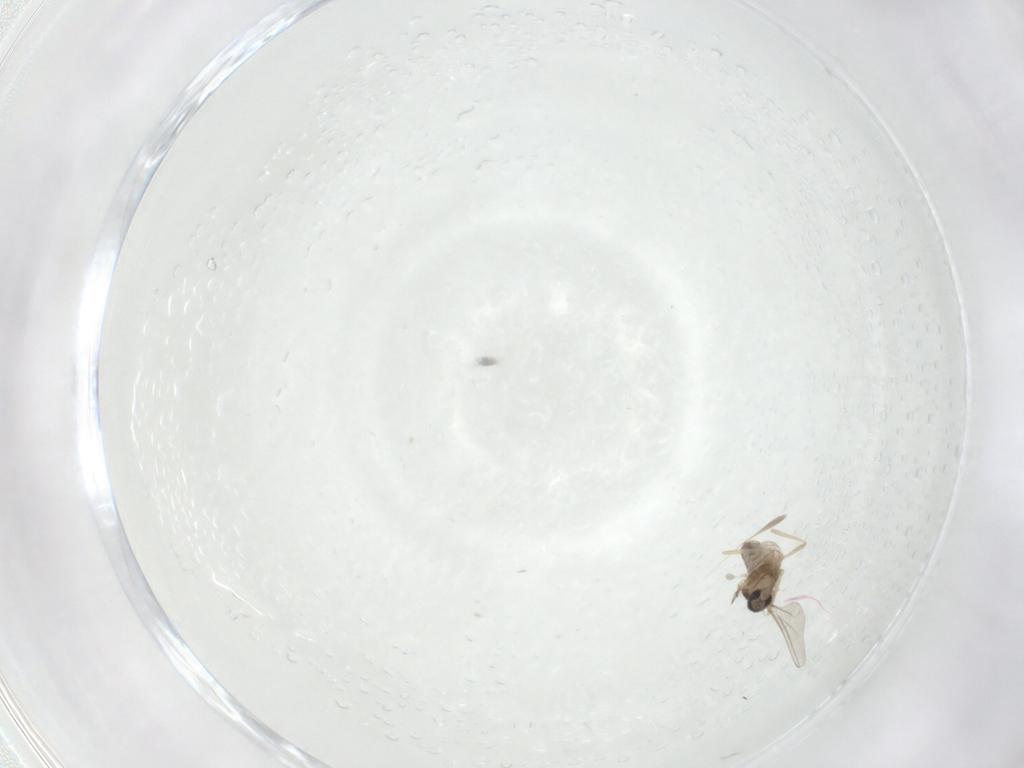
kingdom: Animalia
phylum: Arthropoda
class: Insecta
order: Diptera
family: Cecidomyiidae
